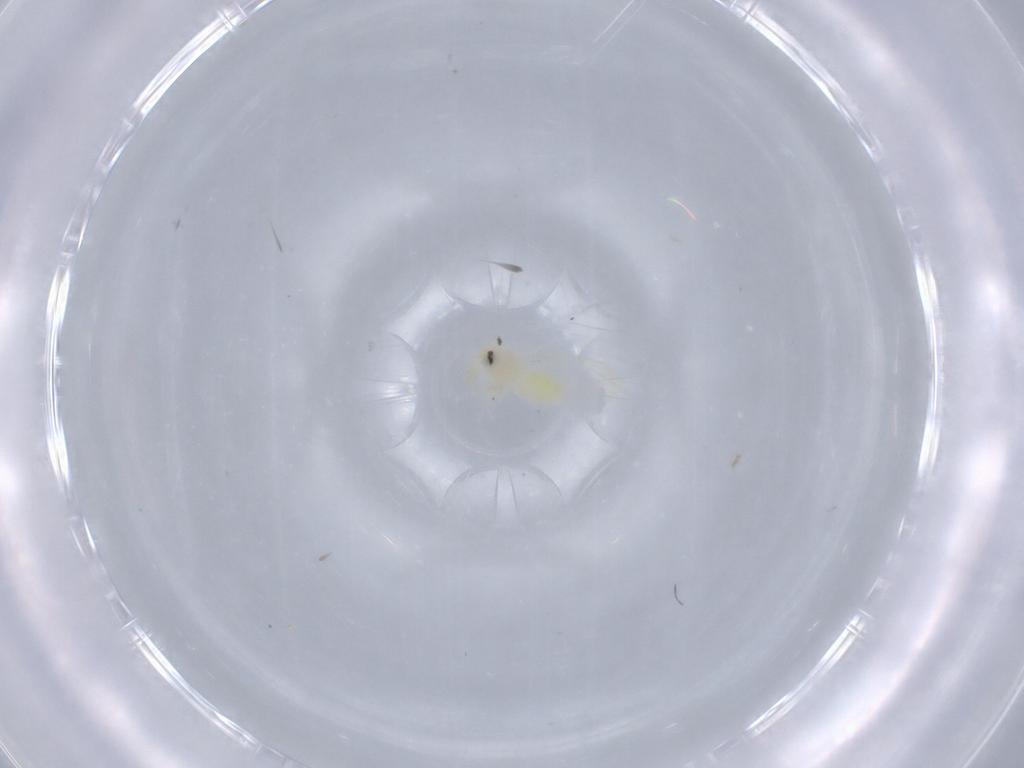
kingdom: Animalia
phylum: Arthropoda
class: Insecta
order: Hemiptera
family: Aleyrodidae
